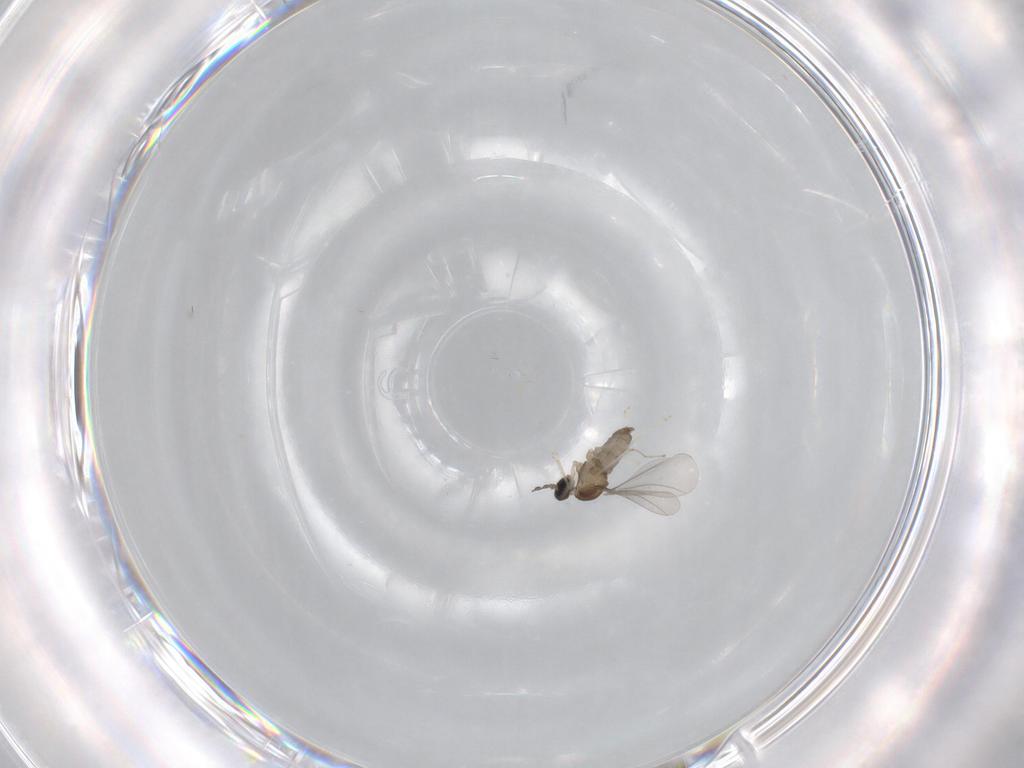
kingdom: Animalia
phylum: Arthropoda
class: Insecta
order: Diptera
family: Cecidomyiidae
